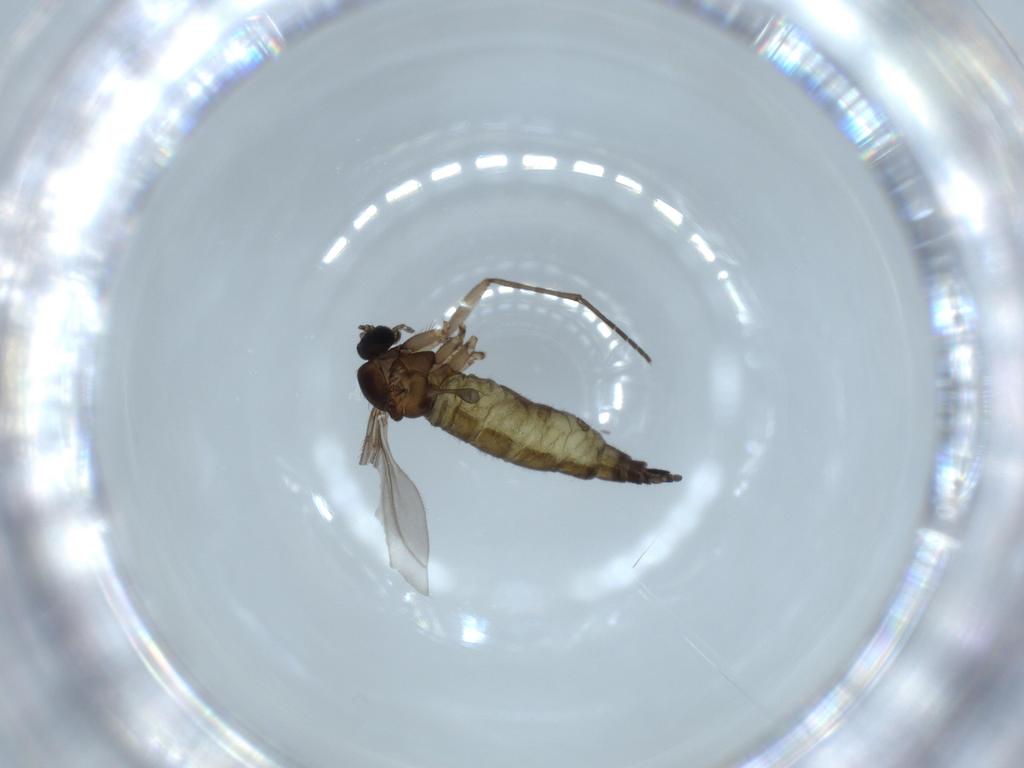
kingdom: Animalia
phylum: Arthropoda
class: Insecta
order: Diptera
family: Sciaridae
